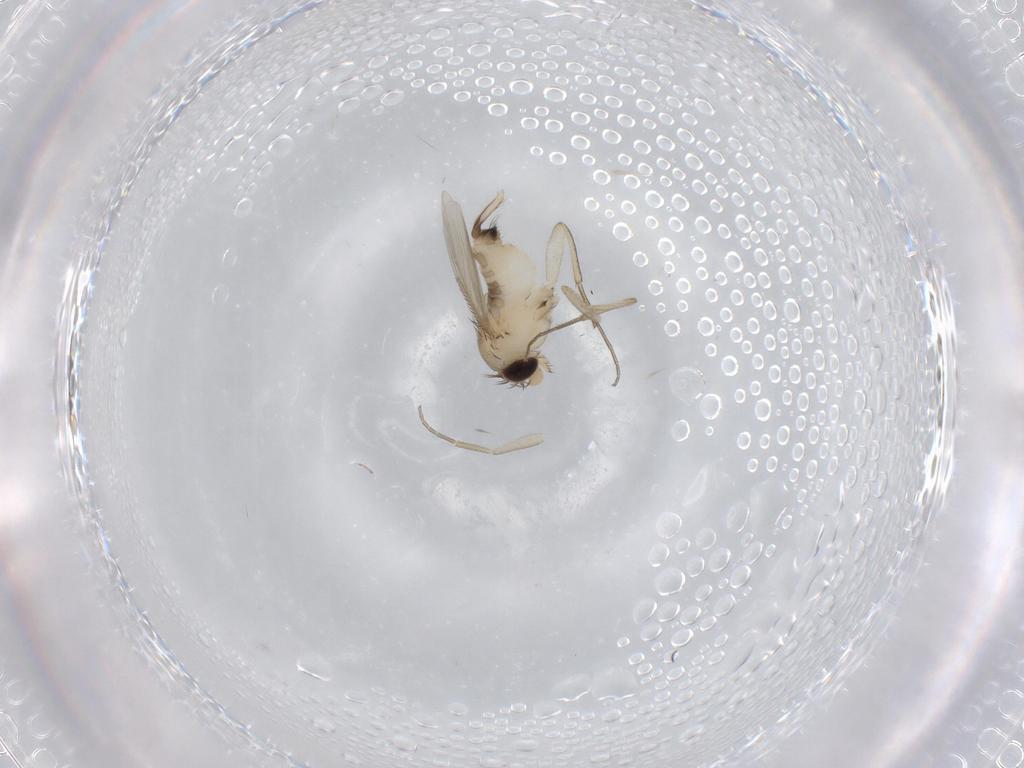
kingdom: Animalia
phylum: Arthropoda
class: Insecta
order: Diptera
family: Phoridae
